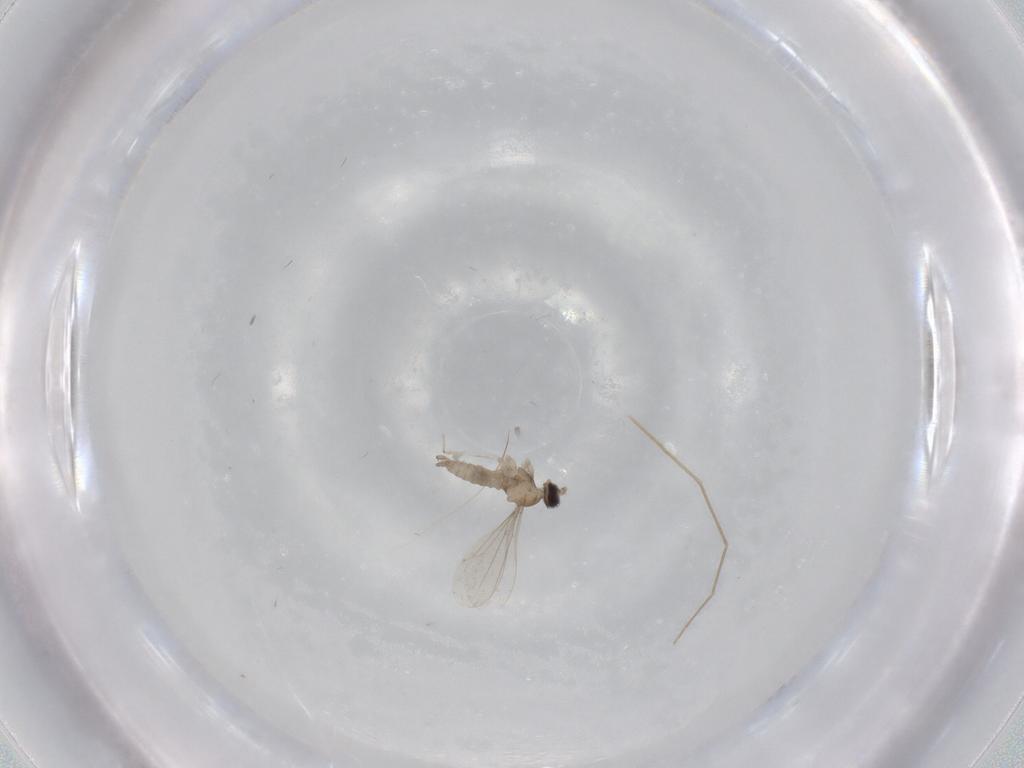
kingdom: Animalia
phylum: Arthropoda
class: Insecta
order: Diptera
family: Cecidomyiidae
